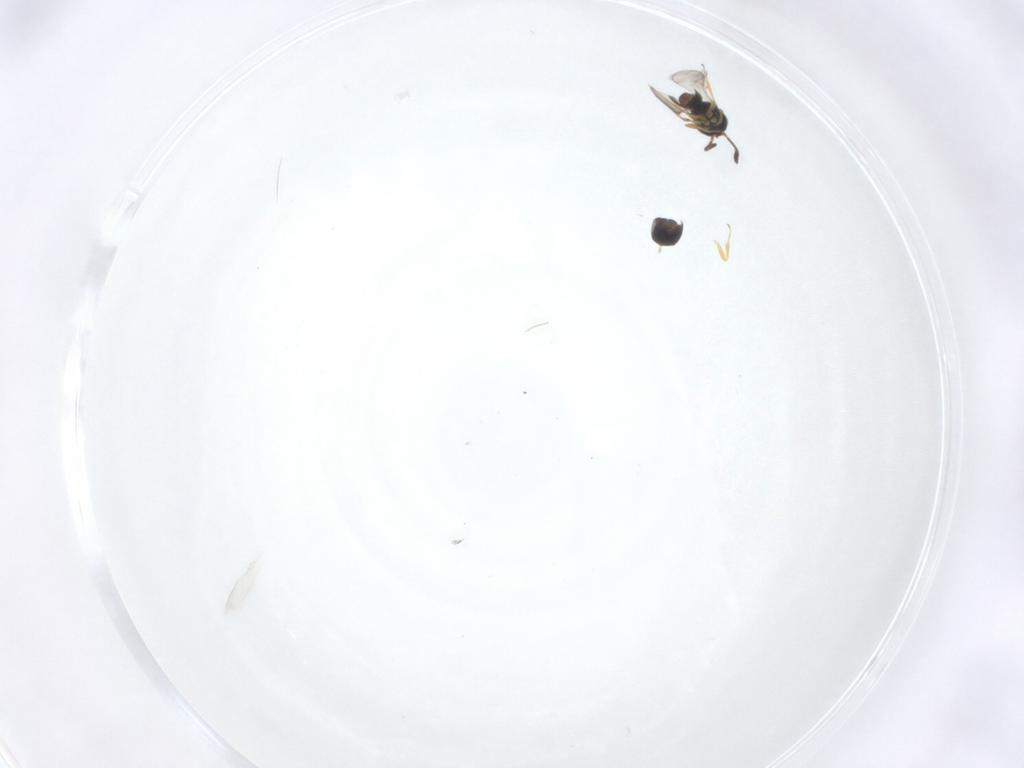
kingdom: Animalia
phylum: Arthropoda
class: Insecta
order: Hymenoptera
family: Scelionidae
